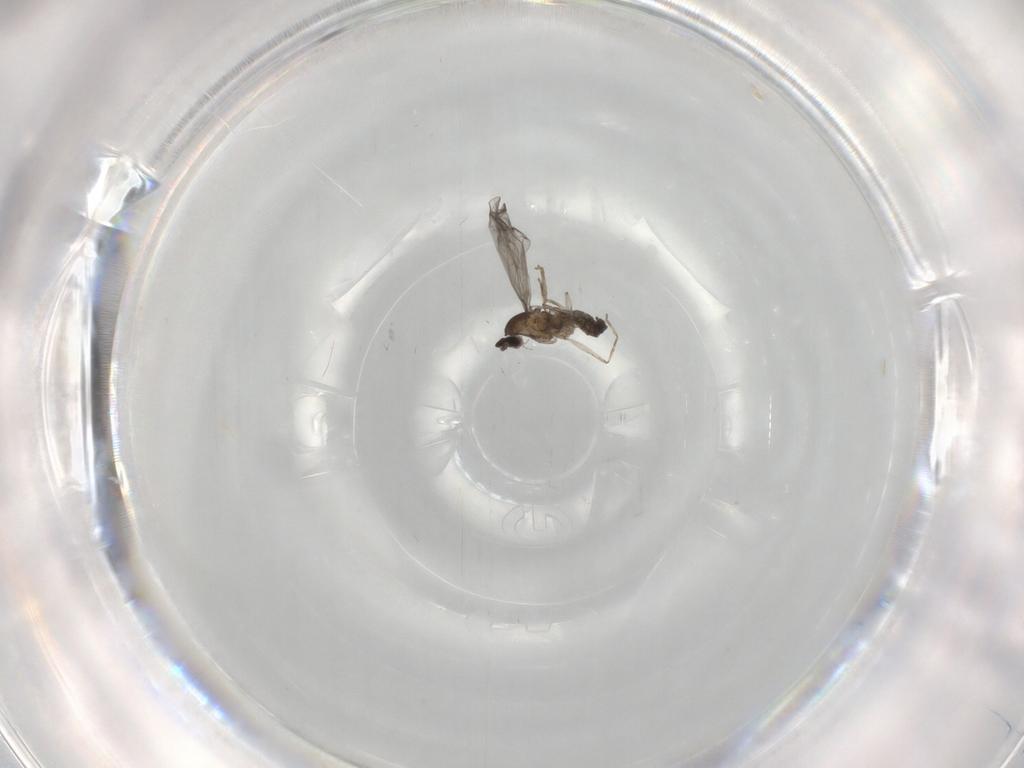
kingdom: Animalia
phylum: Arthropoda
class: Insecta
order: Diptera
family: Cecidomyiidae
